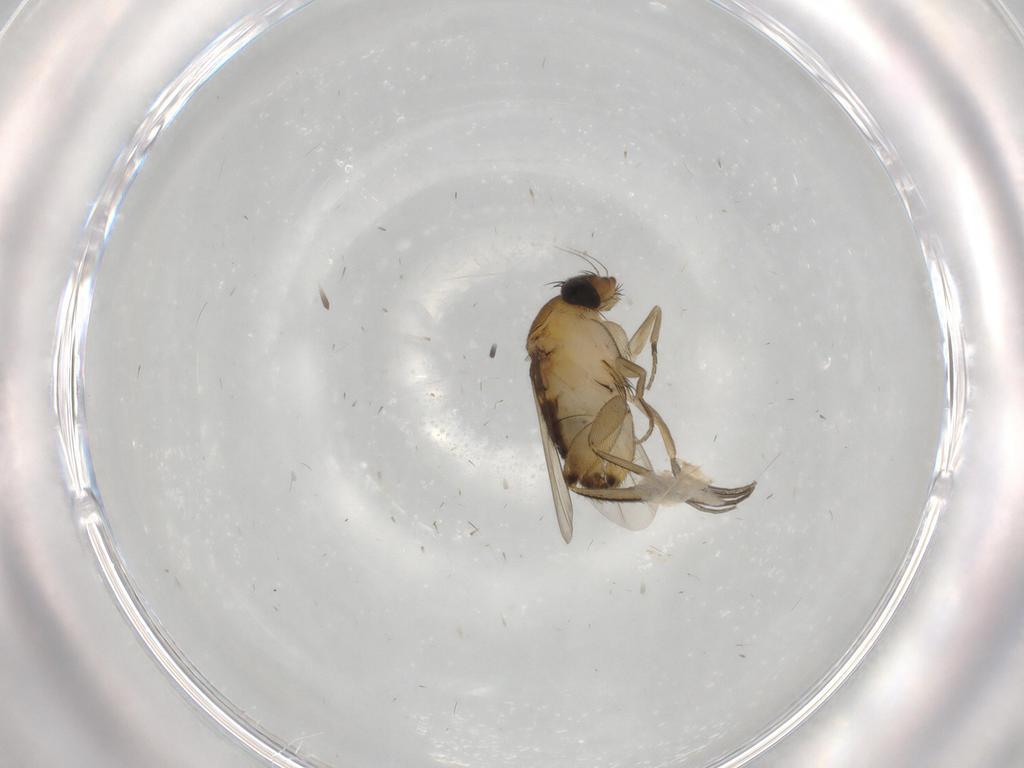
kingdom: Animalia
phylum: Arthropoda
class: Insecta
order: Diptera
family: Phoridae
